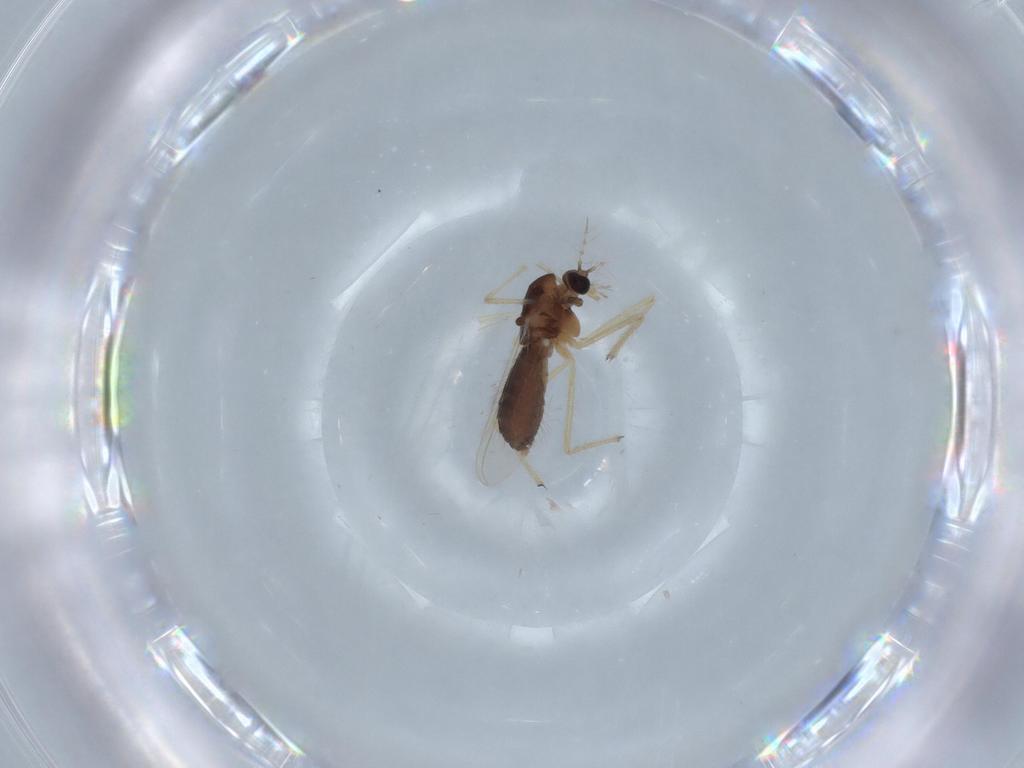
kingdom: Animalia
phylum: Arthropoda
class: Insecta
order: Diptera
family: Chironomidae
